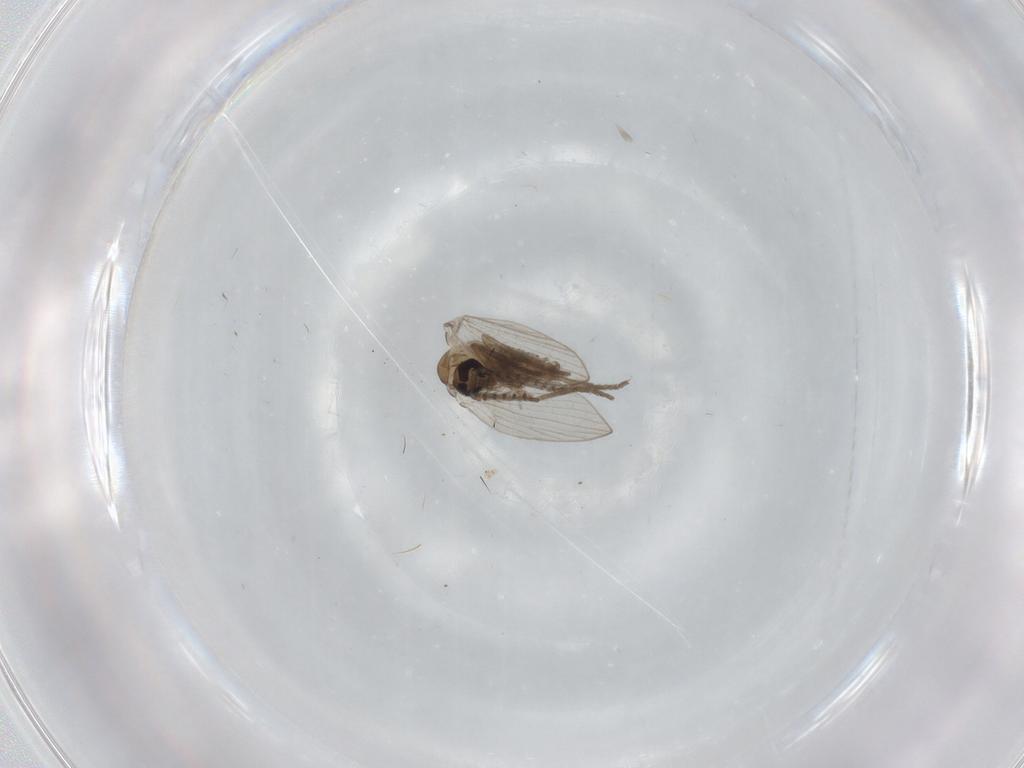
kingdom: Animalia
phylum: Arthropoda
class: Insecta
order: Diptera
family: Psychodidae
